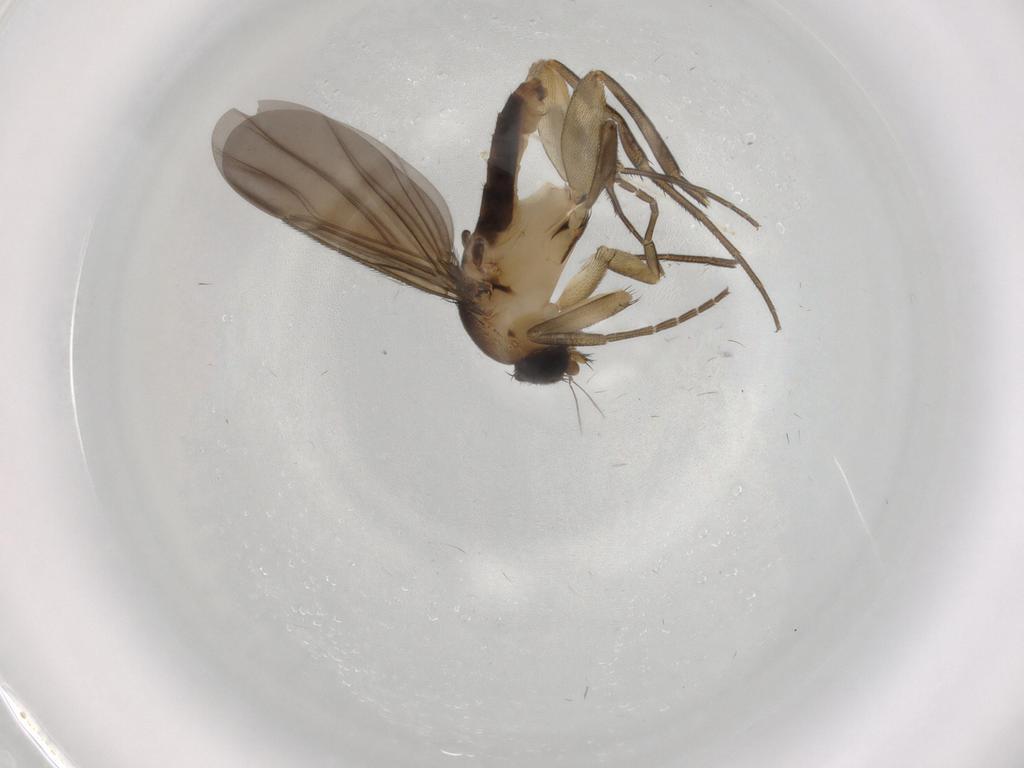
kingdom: Animalia
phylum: Arthropoda
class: Insecta
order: Diptera
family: Phoridae
